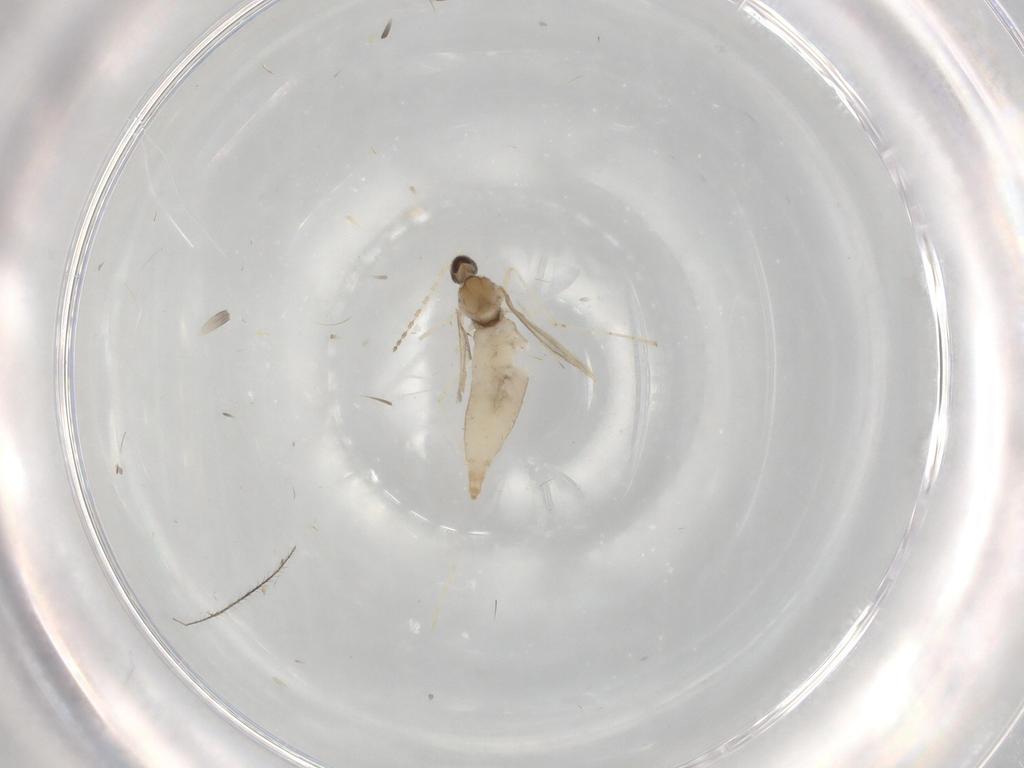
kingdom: Animalia
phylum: Arthropoda
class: Insecta
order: Diptera
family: Cecidomyiidae
